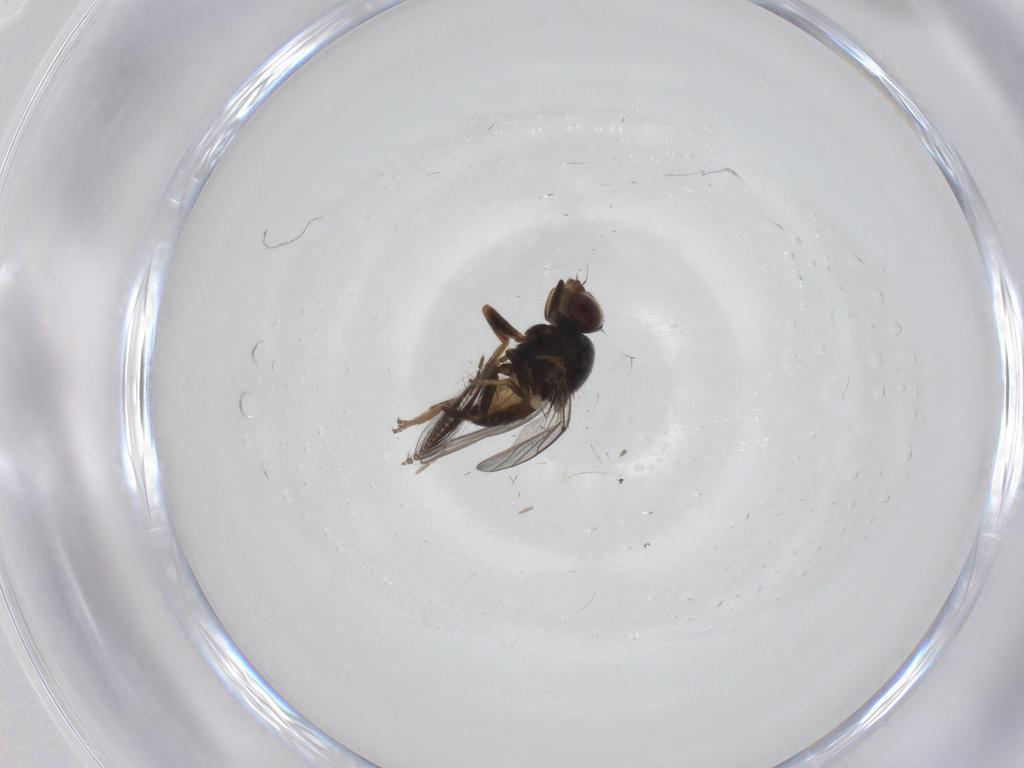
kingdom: Animalia
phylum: Arthropoda
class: Insecta
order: Diptera
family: Chloropidae
